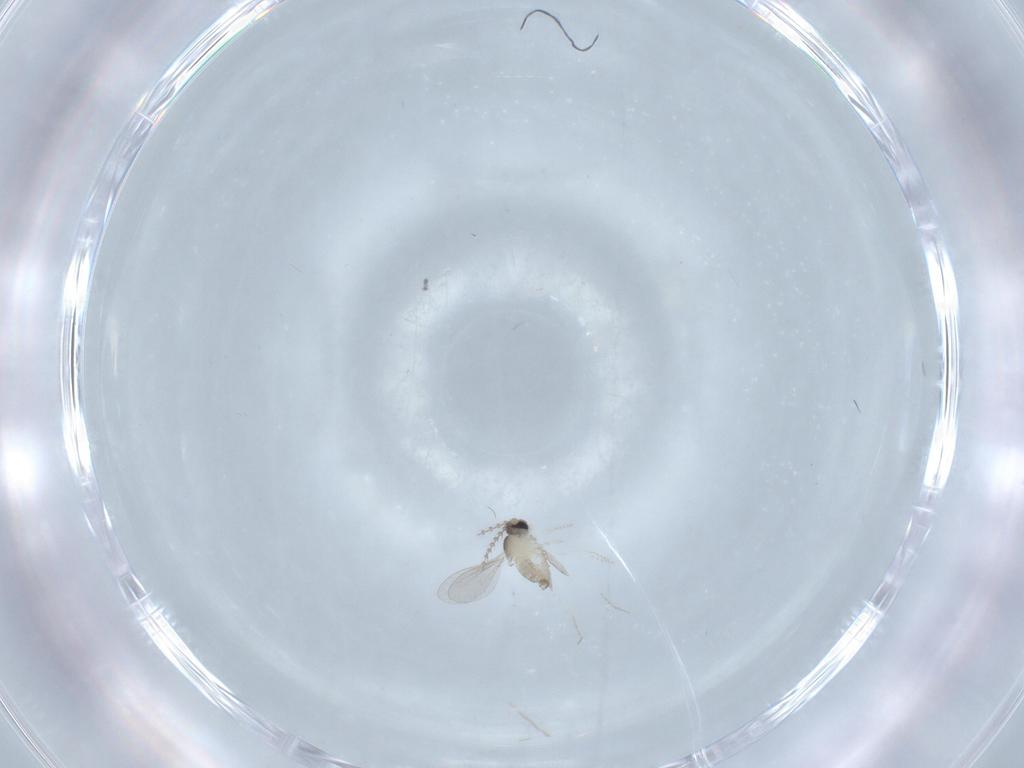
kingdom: Animalia
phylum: Arthropoda
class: Insecta
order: Diptera
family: Cecidomyiidae
